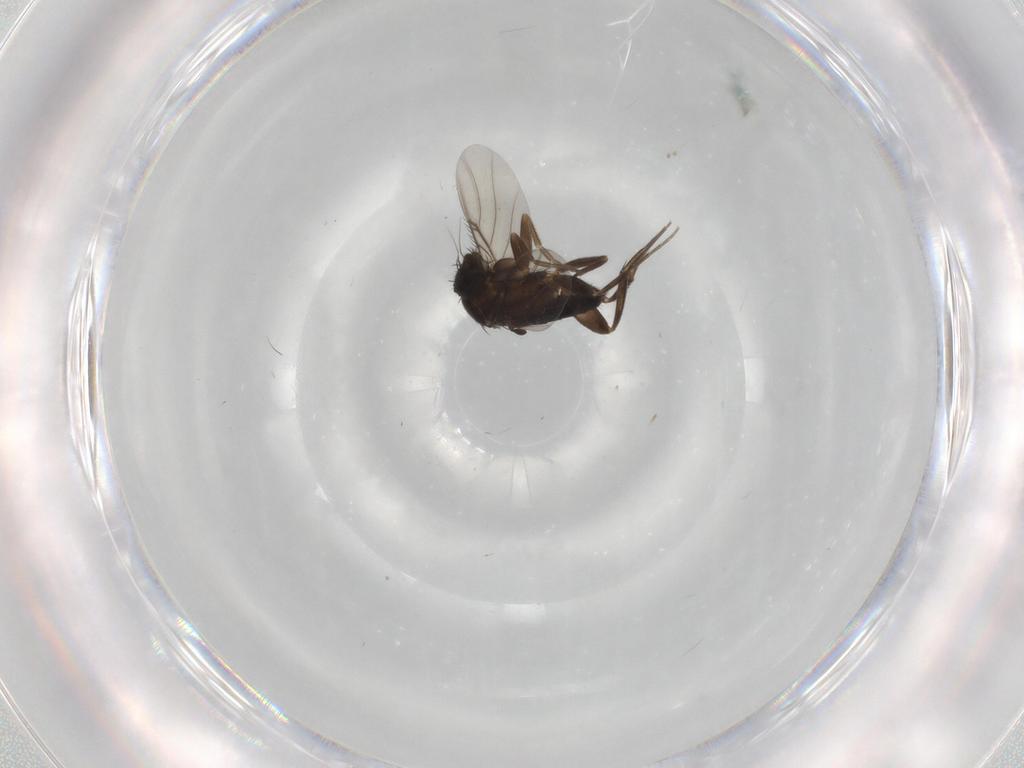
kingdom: Animalia
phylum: Arthropoda
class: Insecta
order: Diptera
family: Phoridae
